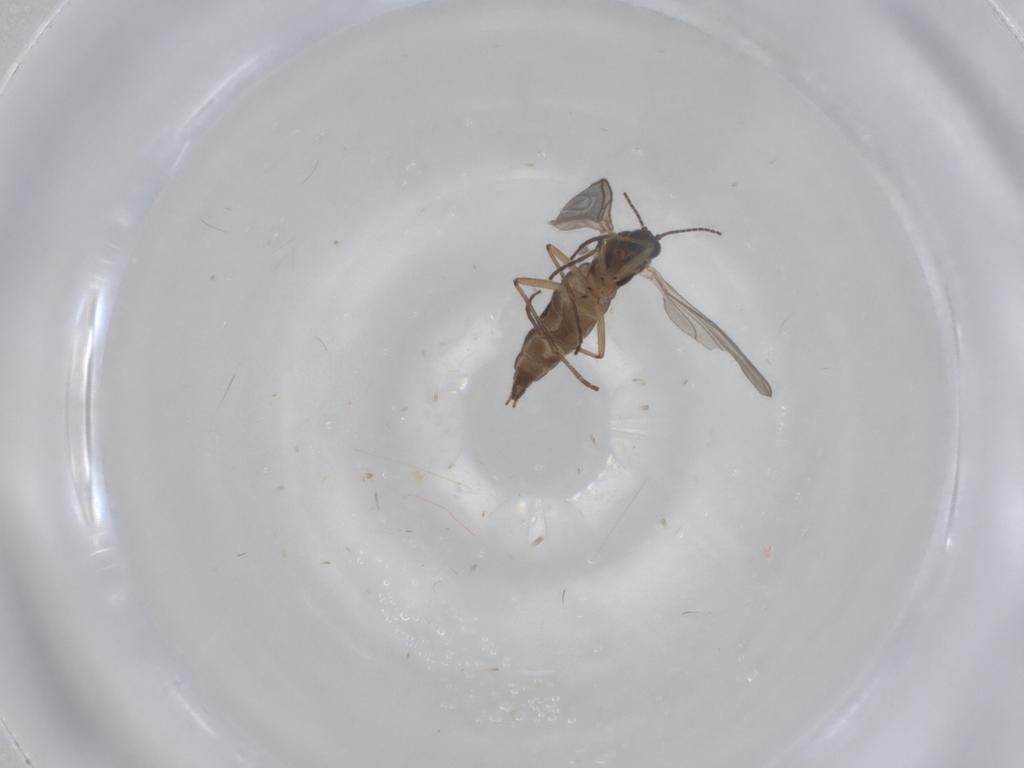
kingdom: Animalia
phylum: Arthropoda
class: Insecta
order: Diptera
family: Sciaridae
